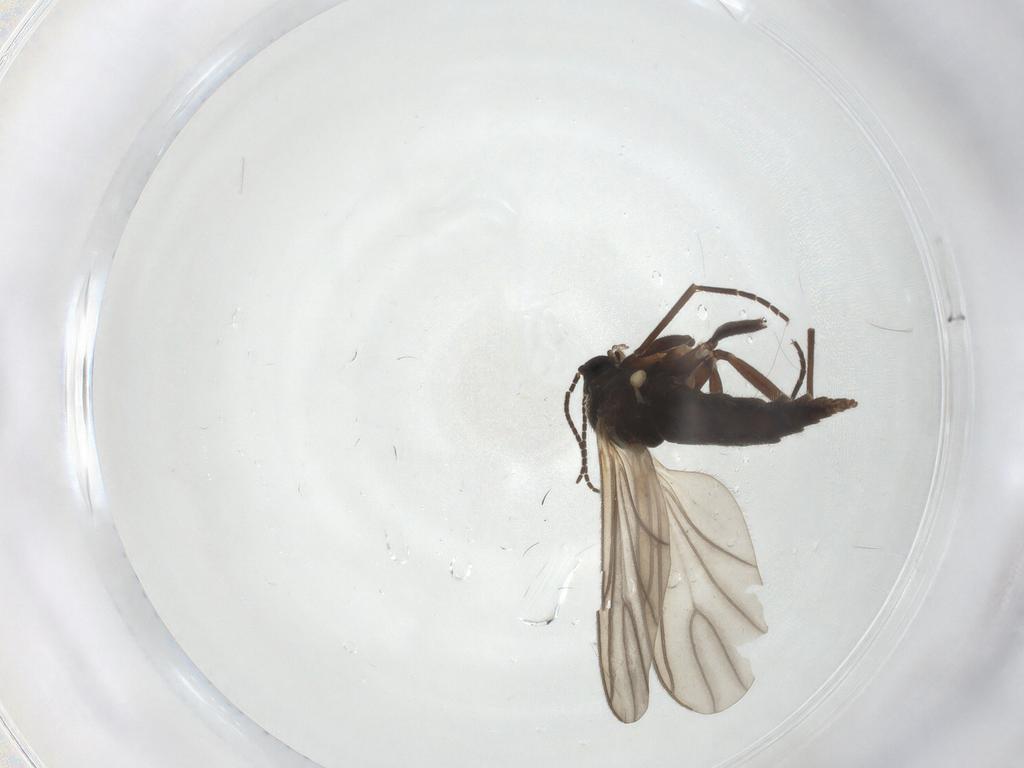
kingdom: Animalia
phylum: Arthropoda
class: Insecta
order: Diptera
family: Sciaridae
